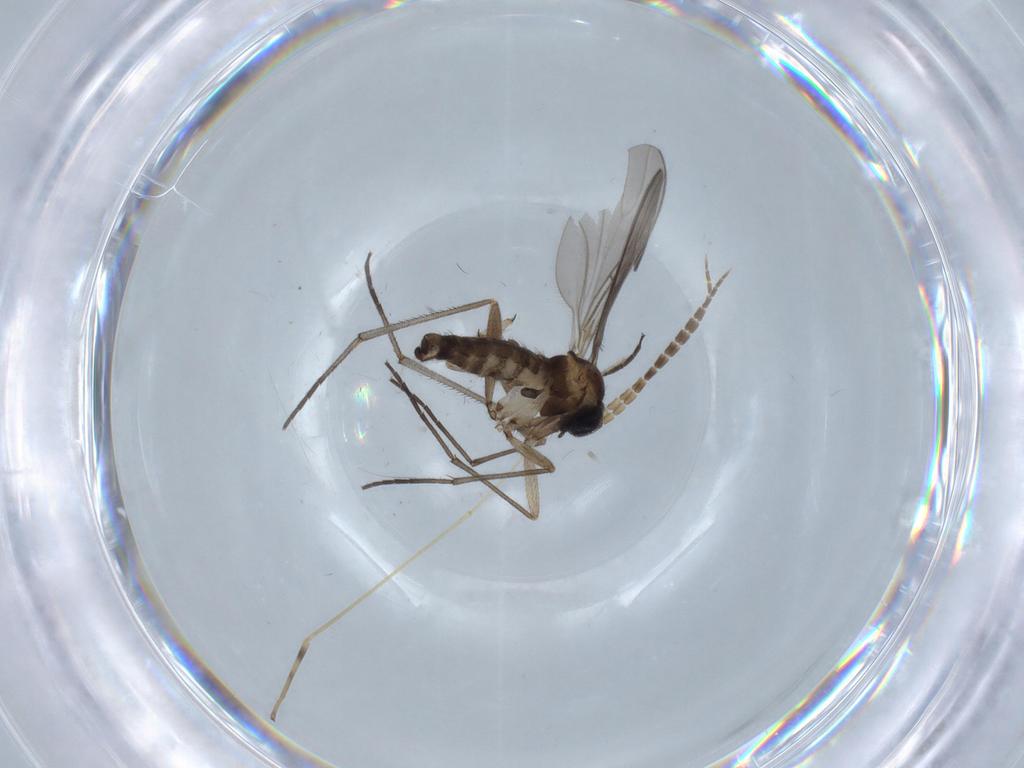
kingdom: Animalia
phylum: Arthropoda
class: Insecta
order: Diptera
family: Sciaridae
